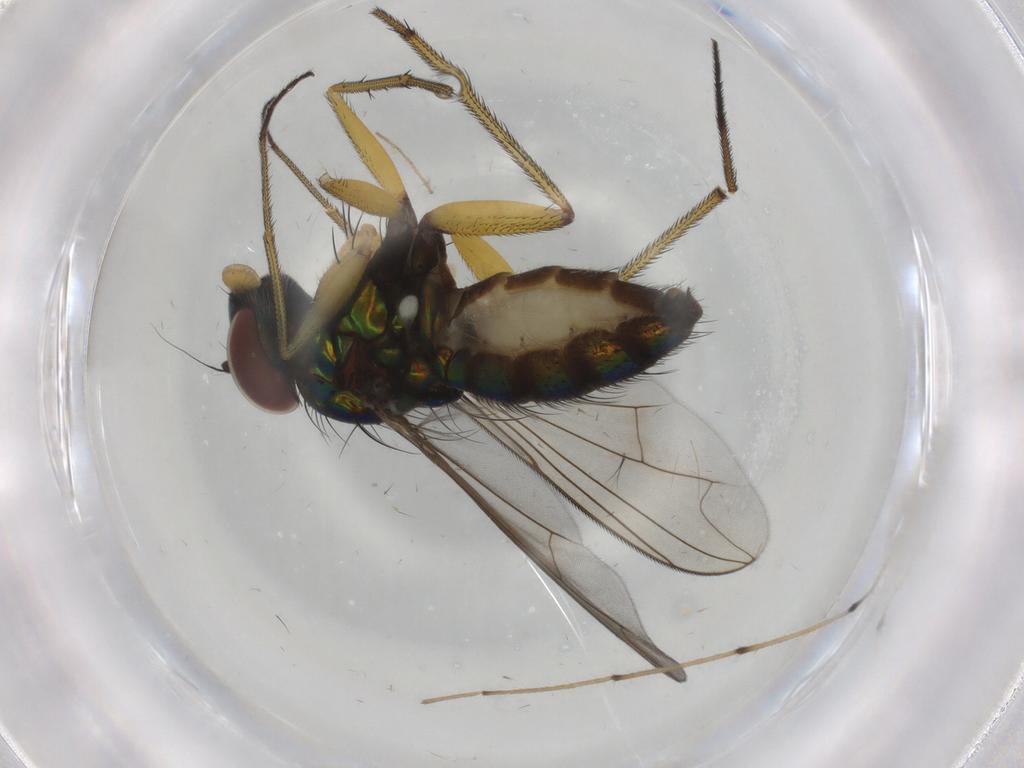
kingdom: Animalia
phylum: Arthropoda
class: Insecta
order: Diptera
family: Dolichopodidae
